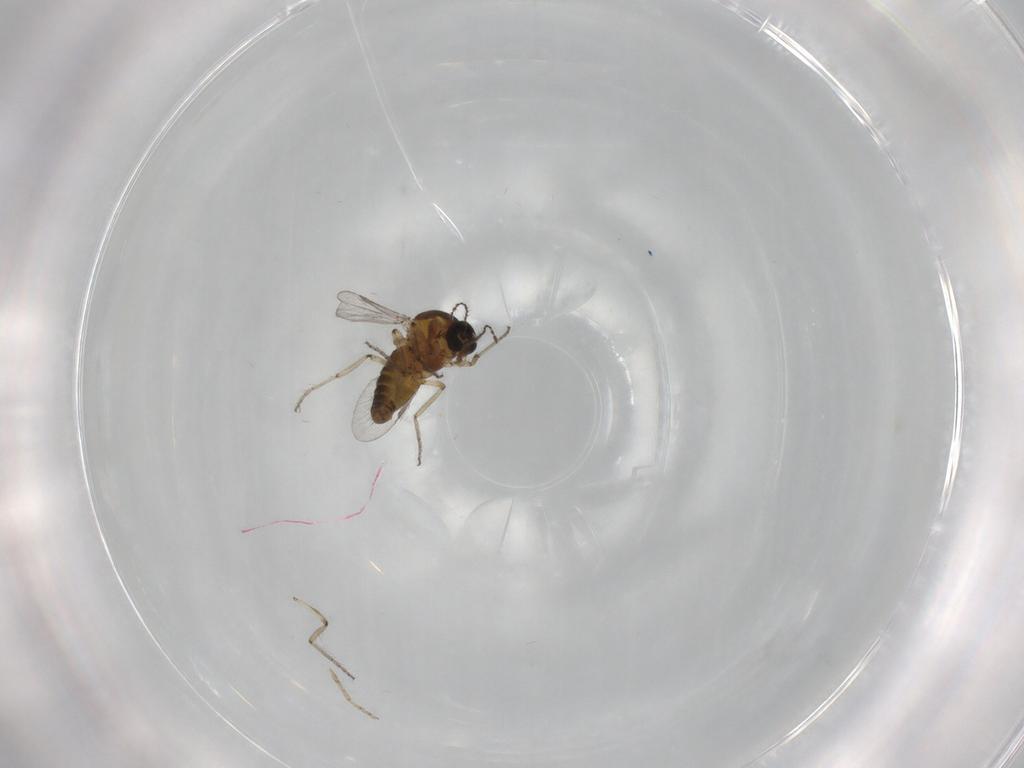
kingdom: Animalia
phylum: Arthropoda
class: Insecta
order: Diptera
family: Ceratopogonidae
